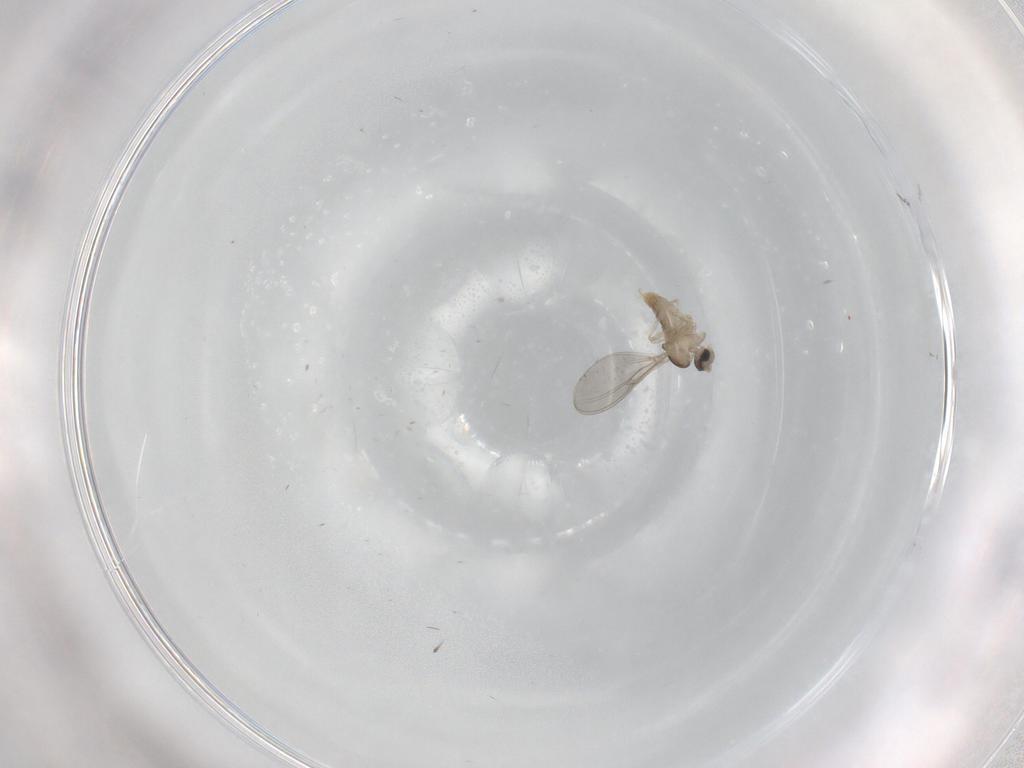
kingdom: Animalia
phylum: Arthropoda
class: Insecta
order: Diptera
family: Cecidomyiidae
